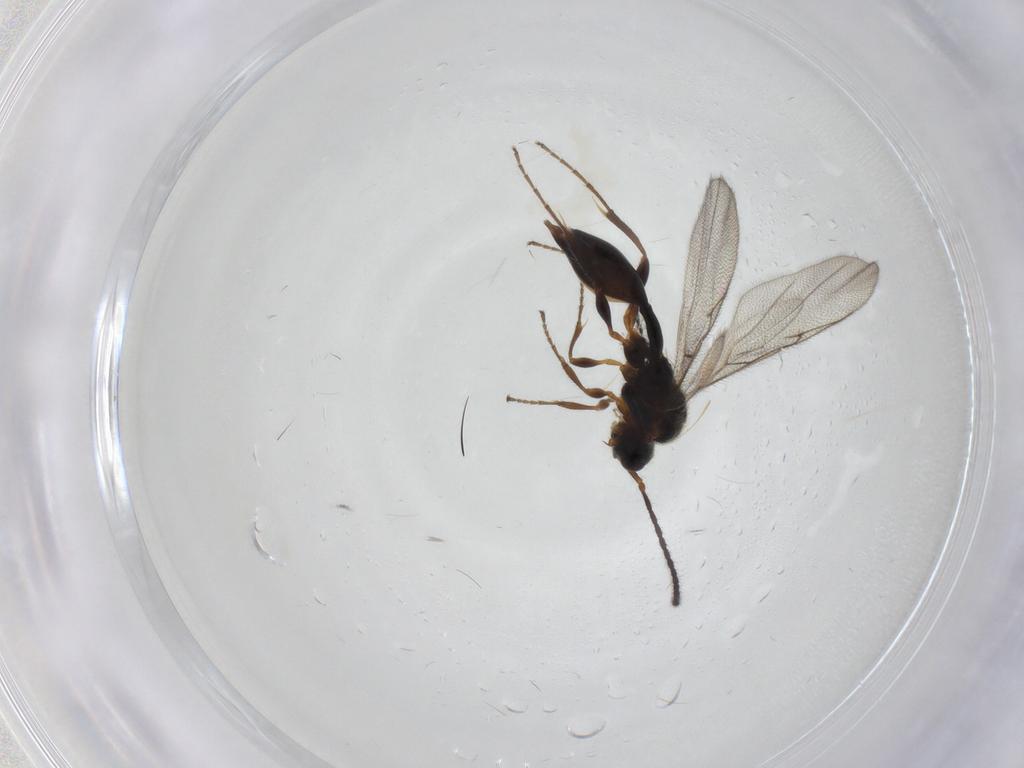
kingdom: Animalia
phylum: Arthropoda
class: Insecta
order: Hymenoptera
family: Diapriidae
